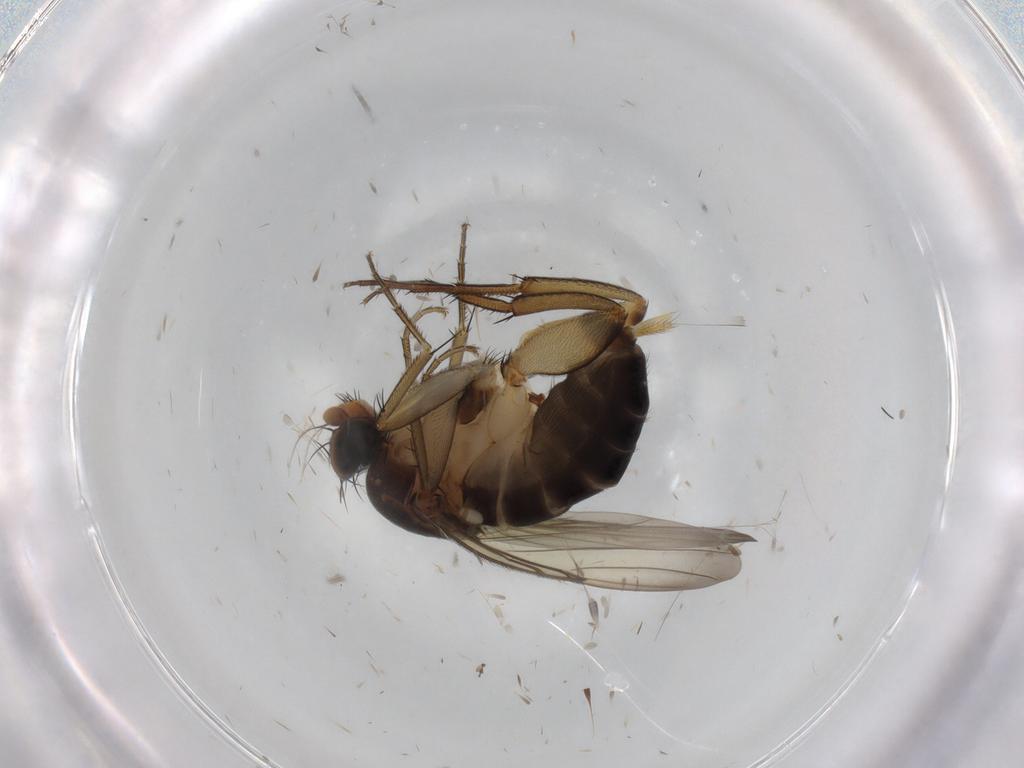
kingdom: Animalia
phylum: Arthropoda
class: Insecta
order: Diptera
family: Phoridae
